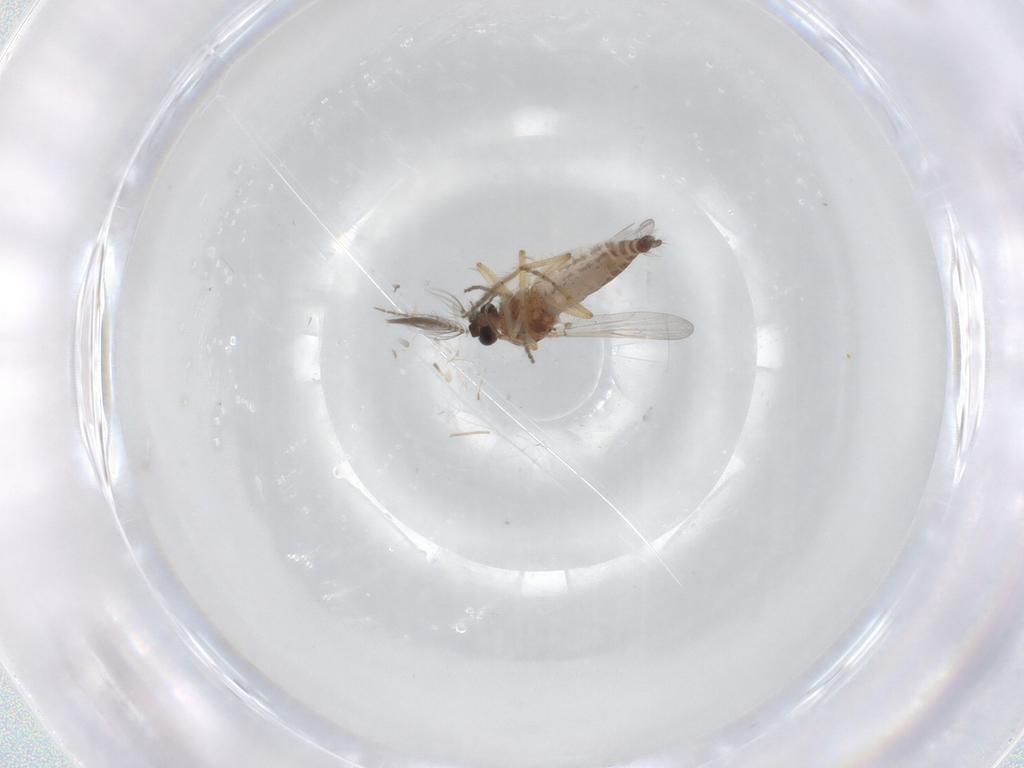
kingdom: Animalia
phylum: Arthropoda
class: Insecta
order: Diptera
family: Ceratopogonidae
